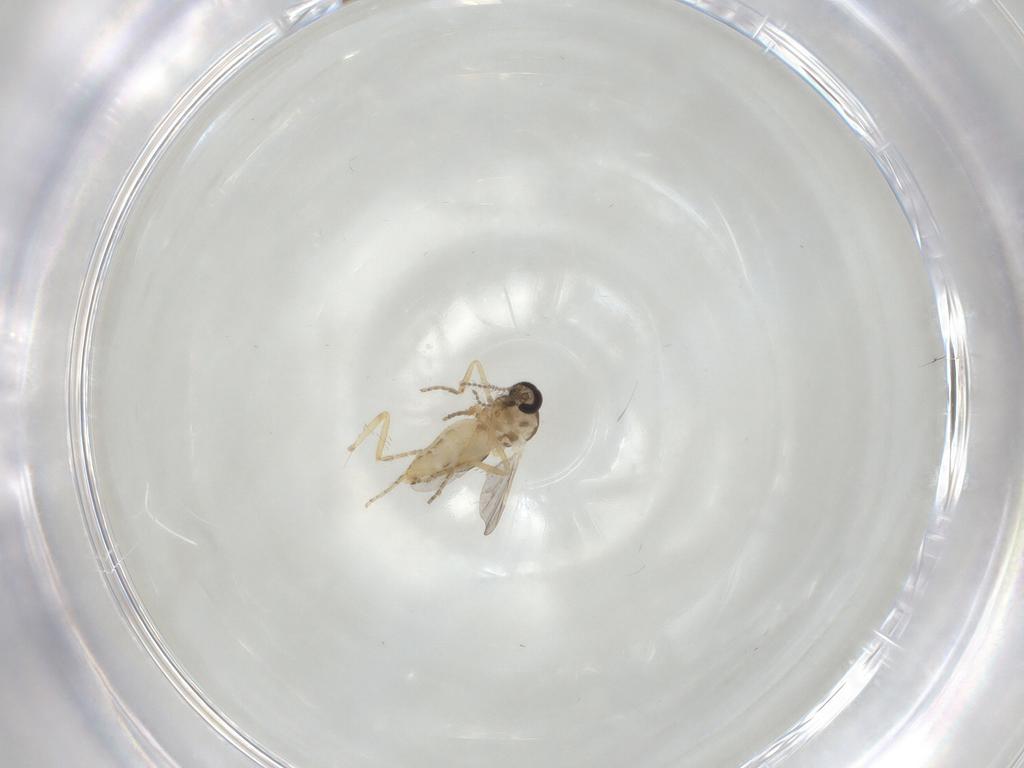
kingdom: Animalia
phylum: Arthropoda
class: Insecta
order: Diptera
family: Ceratopogonidae
